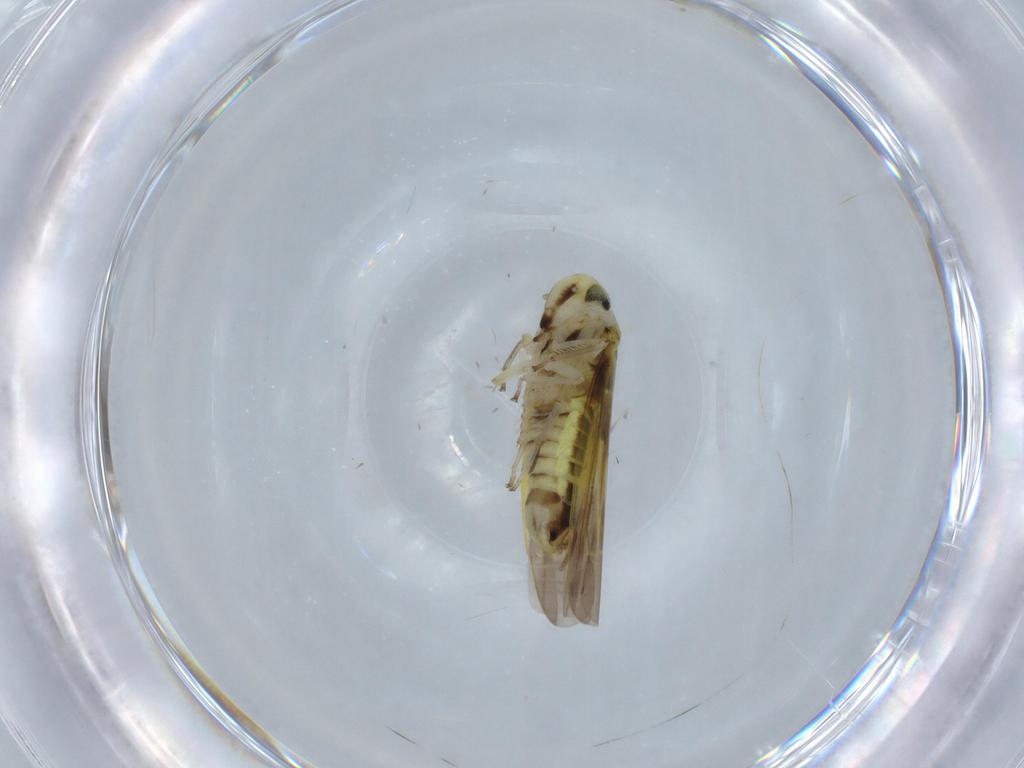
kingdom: Animalia
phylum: Arthropoda
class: Insecta
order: Hemiptera
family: Cicadellidae
